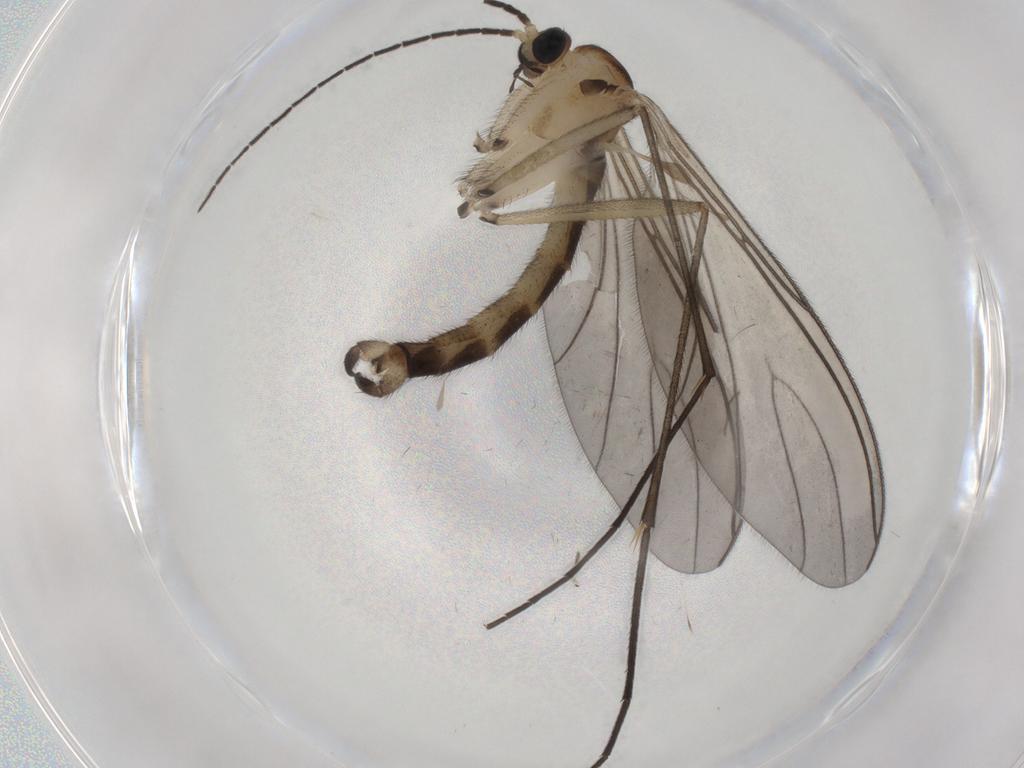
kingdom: Animalia
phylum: Arthropoda
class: Insecta
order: Diptera
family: Sciaridae
